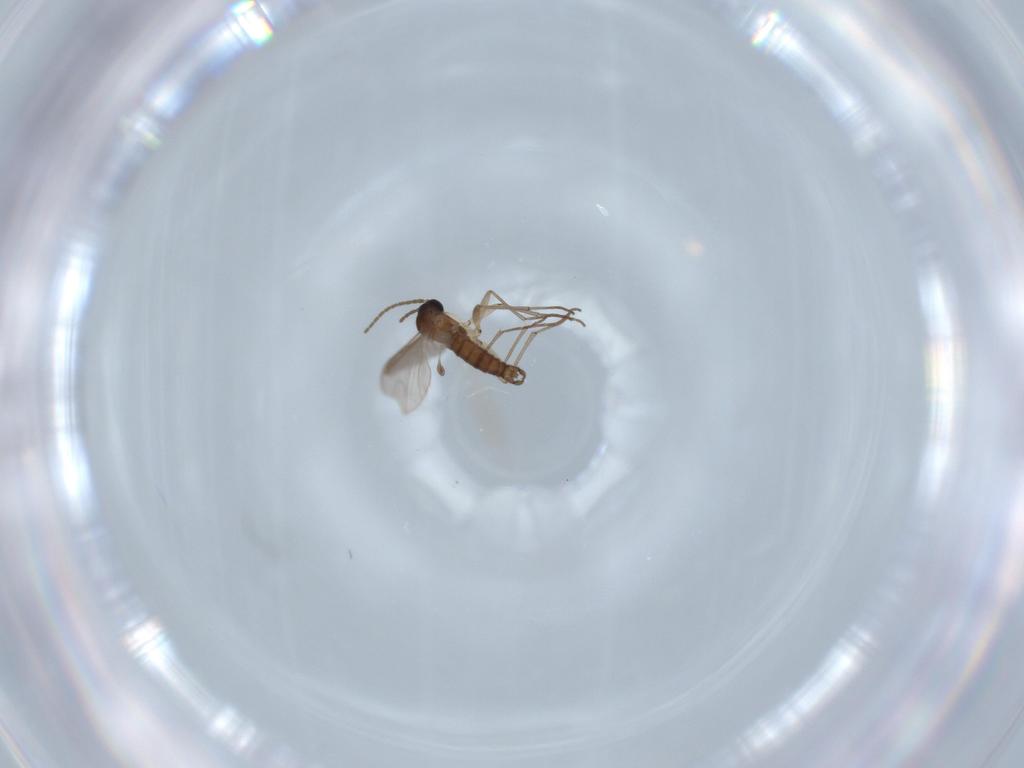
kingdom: Animalia
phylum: Arthropoda
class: Insecta
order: Diptera
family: Sciaridae
